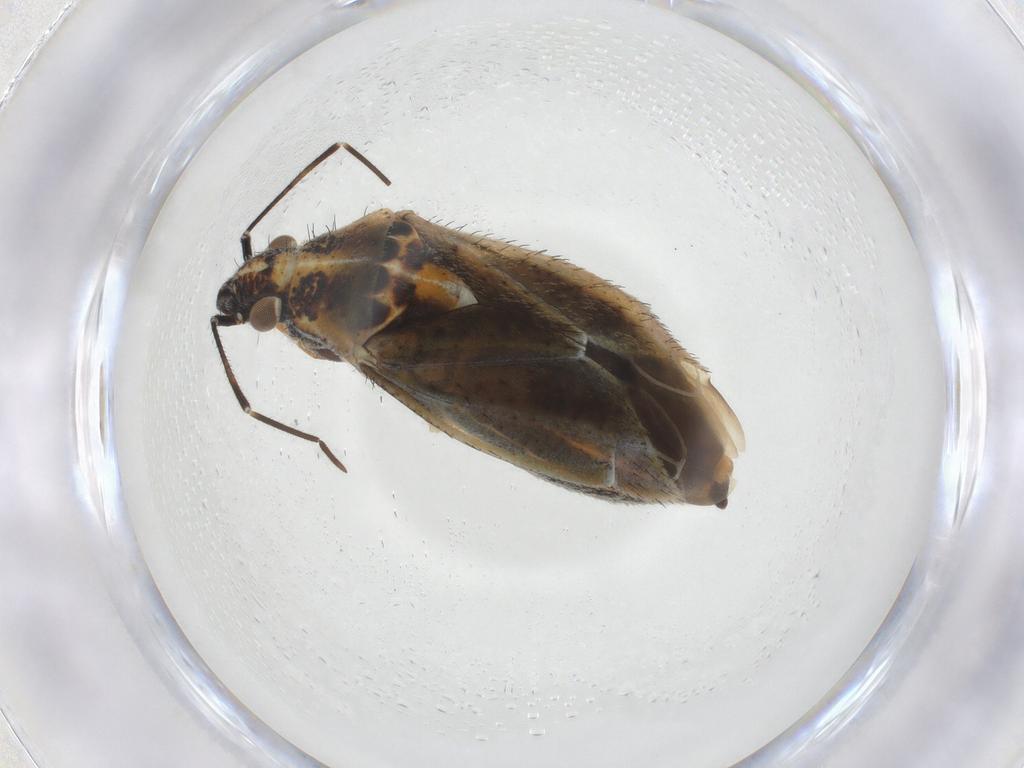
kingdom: Animalia
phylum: Arthropoda
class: Insecta
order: Hemiptera
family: Miridae
